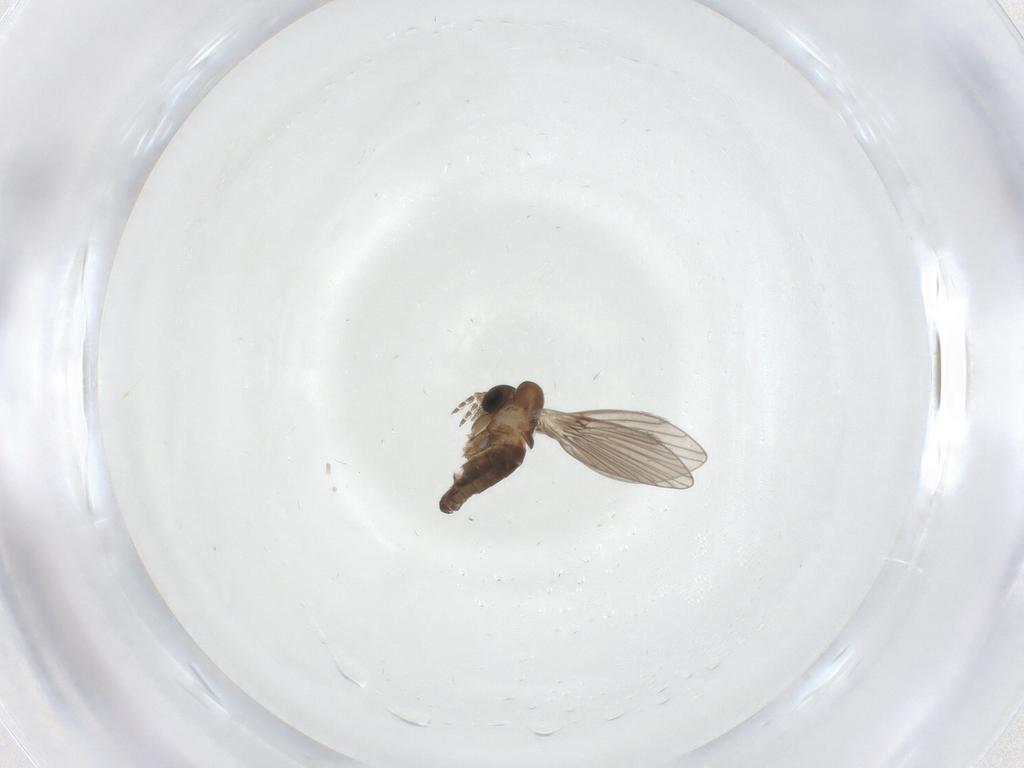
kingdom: Animalia
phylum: Arthropoda
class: Insecta
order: Diptera
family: Psychodidae
